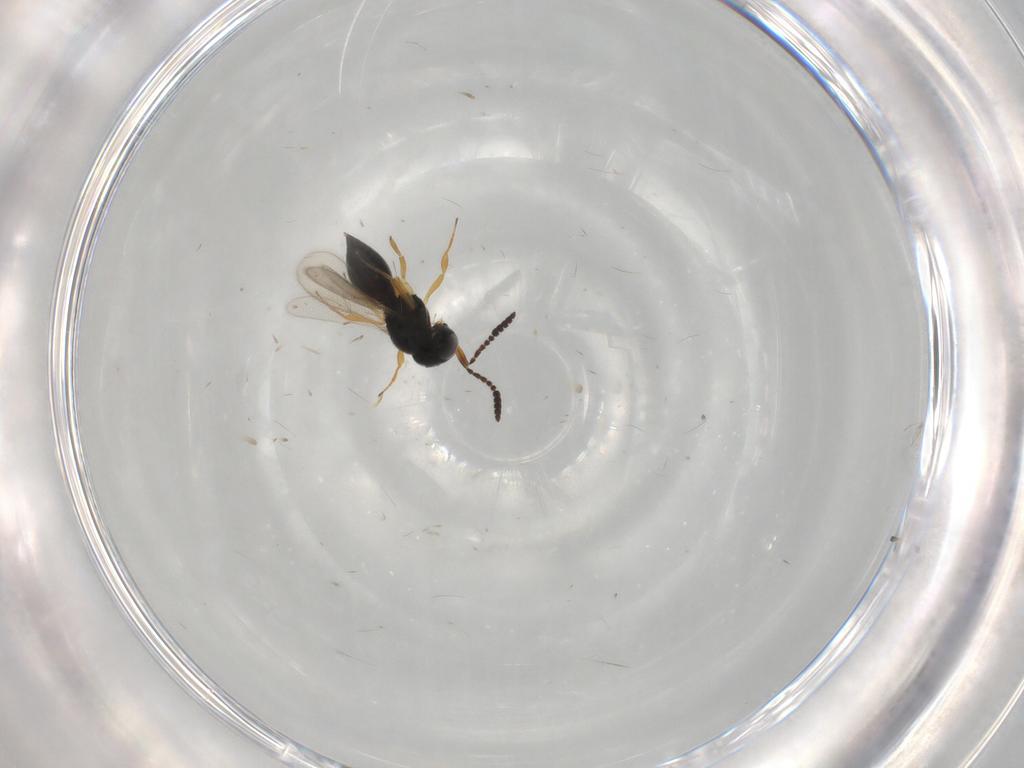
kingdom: Animalia
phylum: Arthropoda
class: Insecta
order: Hymenoptera
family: Scelionidae
